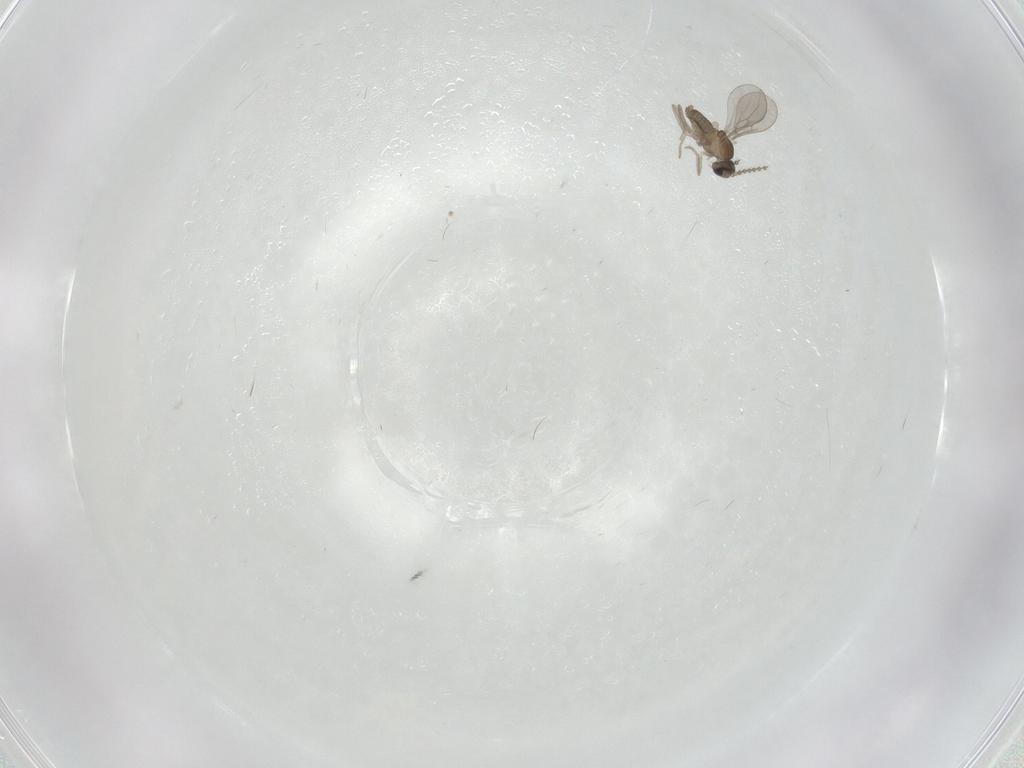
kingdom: Animalia
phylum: Arthropoda
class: Insecta
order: Diptera
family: Cecidomyiidae
